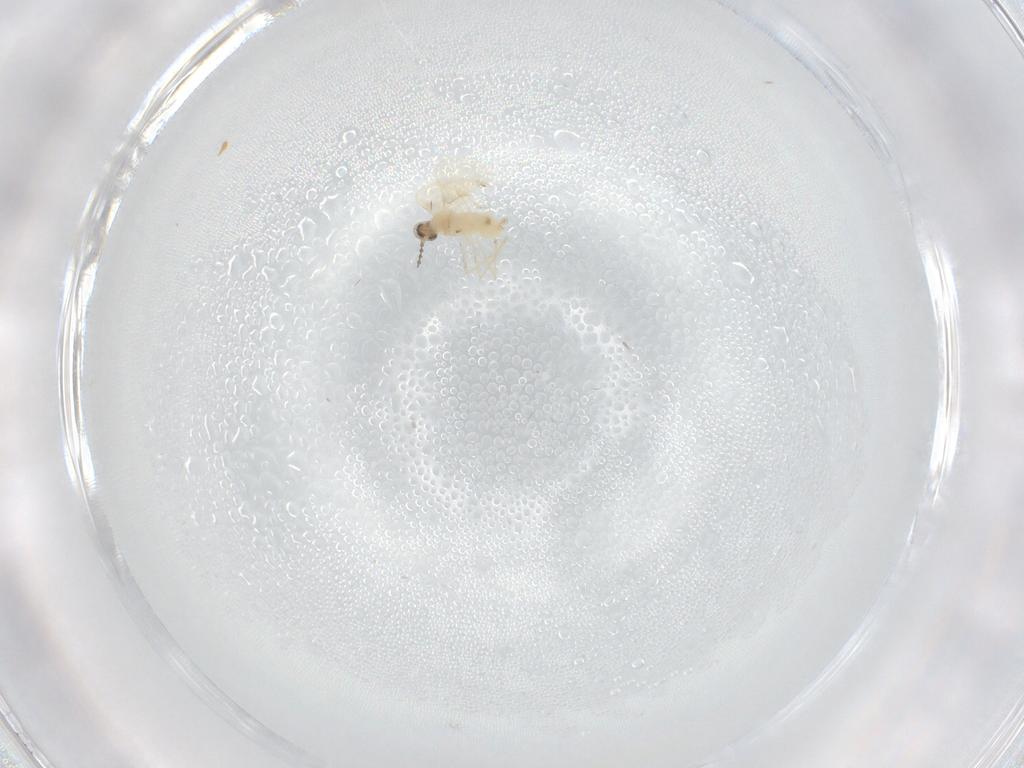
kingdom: Animalia
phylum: Arthropoda
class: Insecta
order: Diptera
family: Cecidomyiidae
